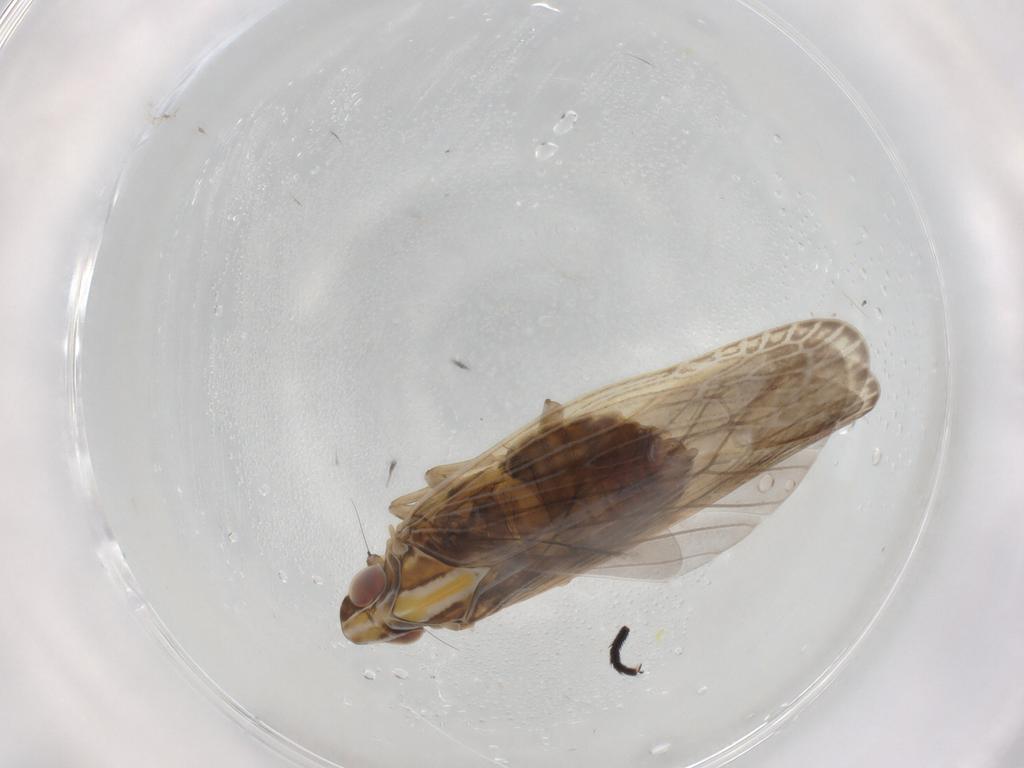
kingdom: Animalia
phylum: Arthropoda
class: Insecta
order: Hemiptera
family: Achilidae
